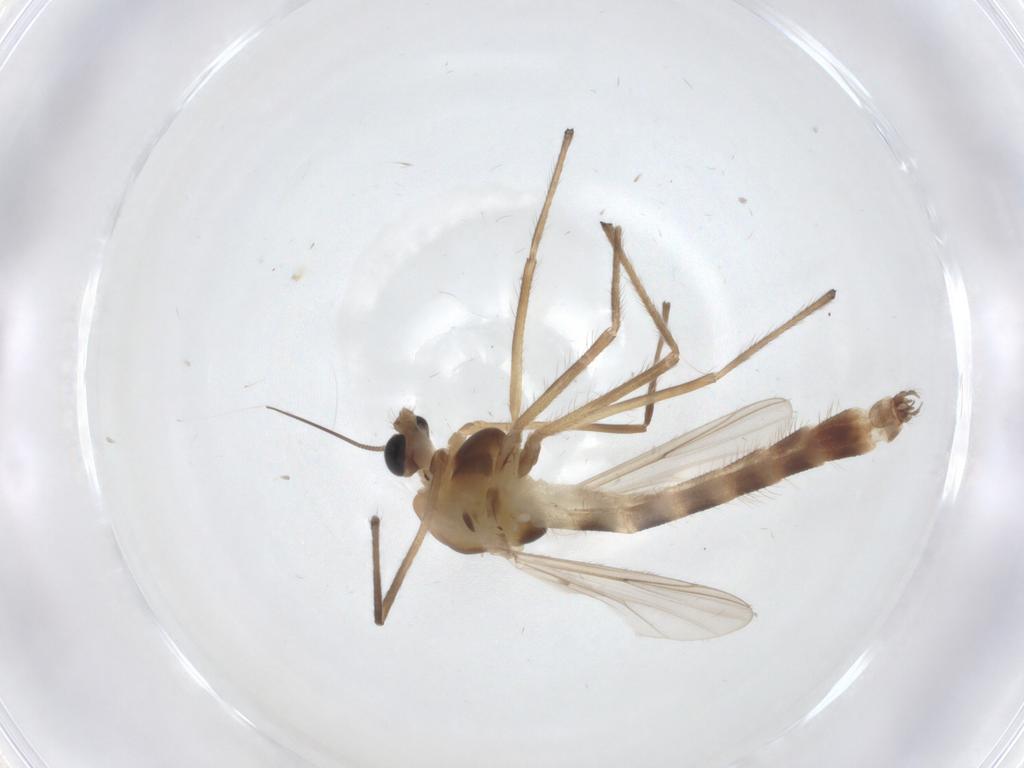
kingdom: Animalia
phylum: Arthropoda
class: Insecta
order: Diptera
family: Chironomidae
